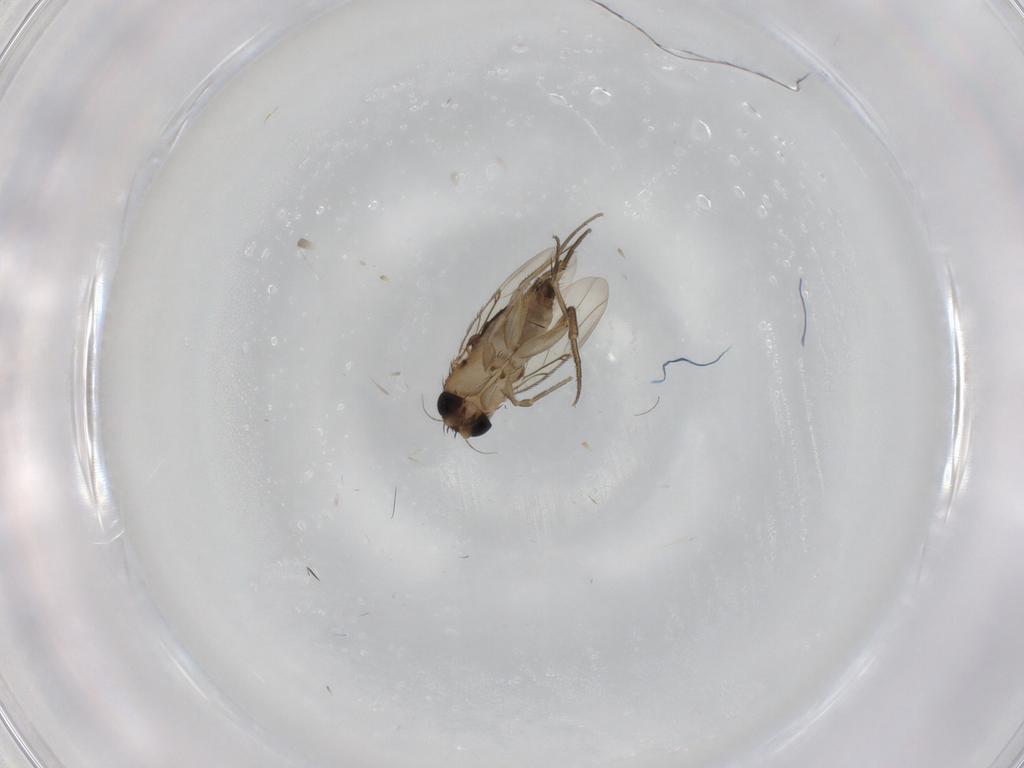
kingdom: Animalia
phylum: Arthropoda
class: Insecta
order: Diptera
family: Phoridae
